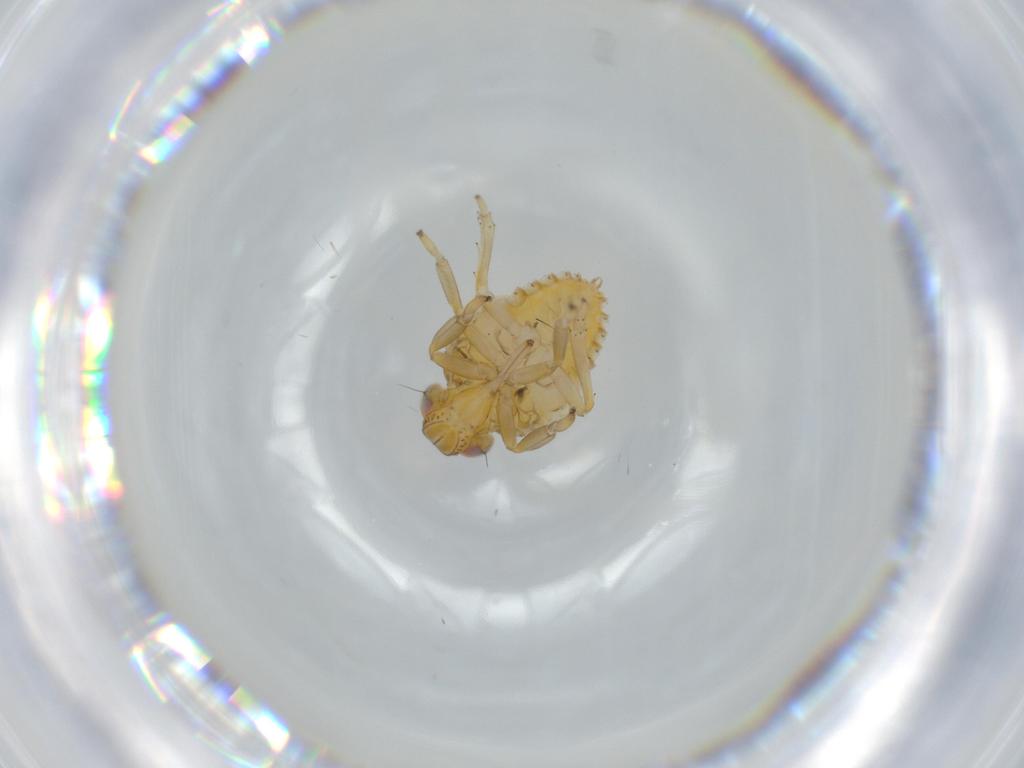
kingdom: Animalia
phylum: Arthropoda
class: Insecta
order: Hemiptera
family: Issidae
